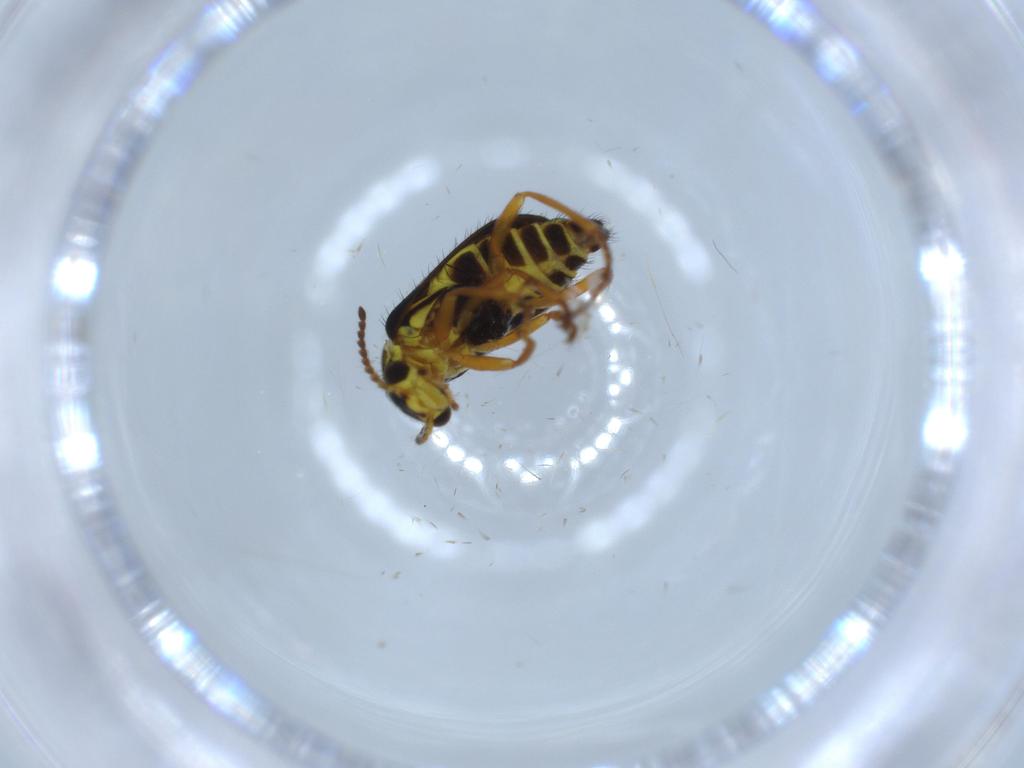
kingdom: Animalia
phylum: Arthropoda
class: Insecta
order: Coleoptera
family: Melyridae
